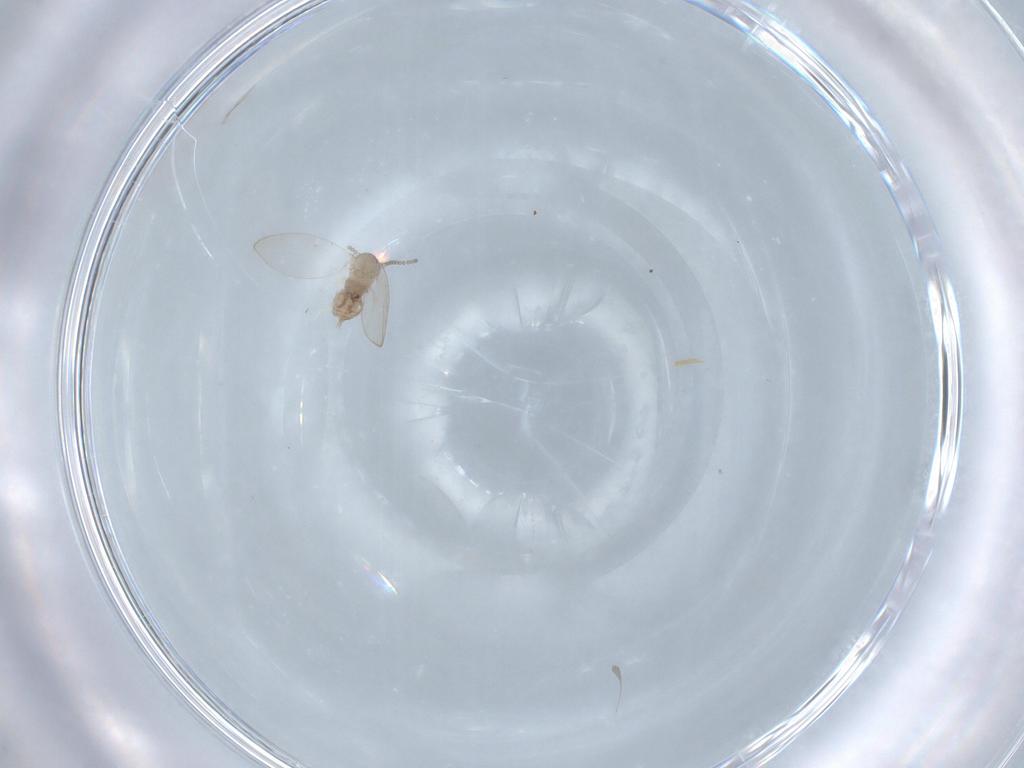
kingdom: Animalia
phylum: Arthropoda
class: Insecta
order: Diptera
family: Psychodidae
